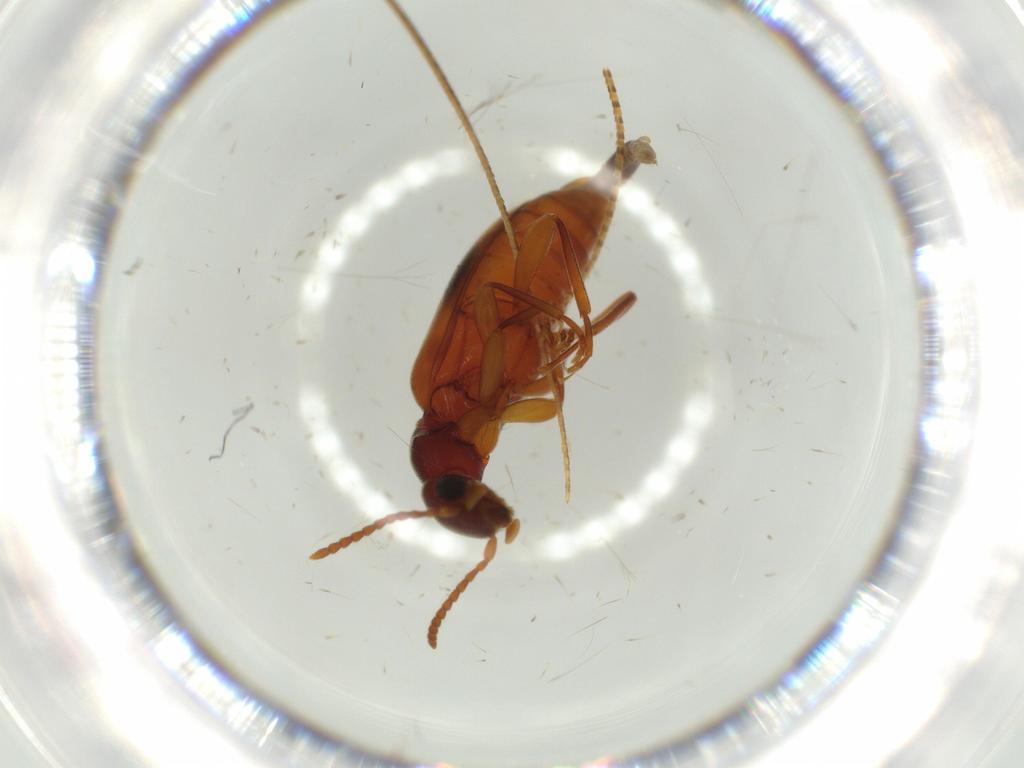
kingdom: Animalia
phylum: Arthropoda
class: Insecta
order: Coleoptera
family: Anthicidae
